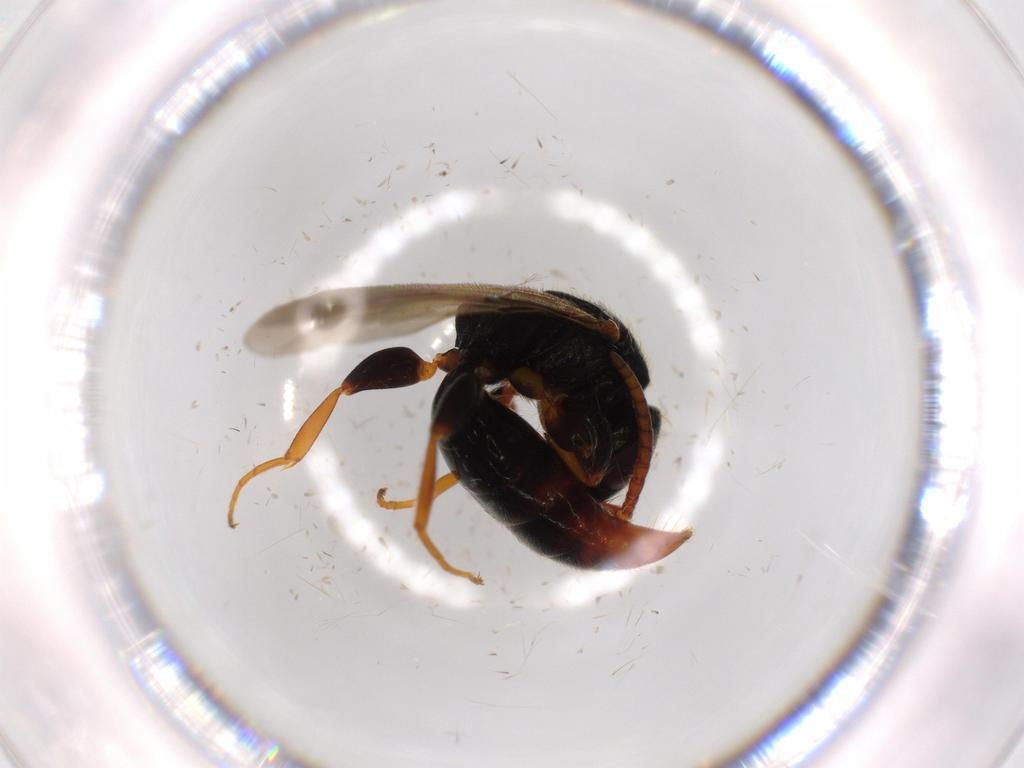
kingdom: Animalia
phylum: Arthropoda
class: Insecta
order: Hymenoptera
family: Bethylidae
